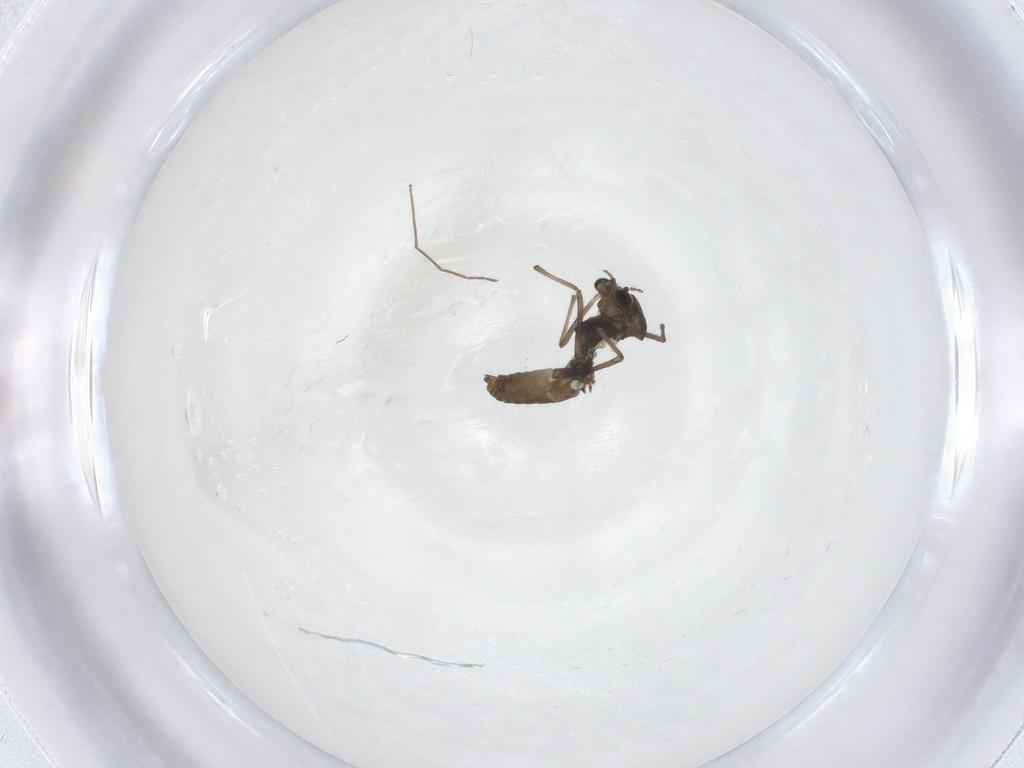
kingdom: Animalia
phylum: Arthropoda
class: Insecta
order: Diptera
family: Chironomidae
